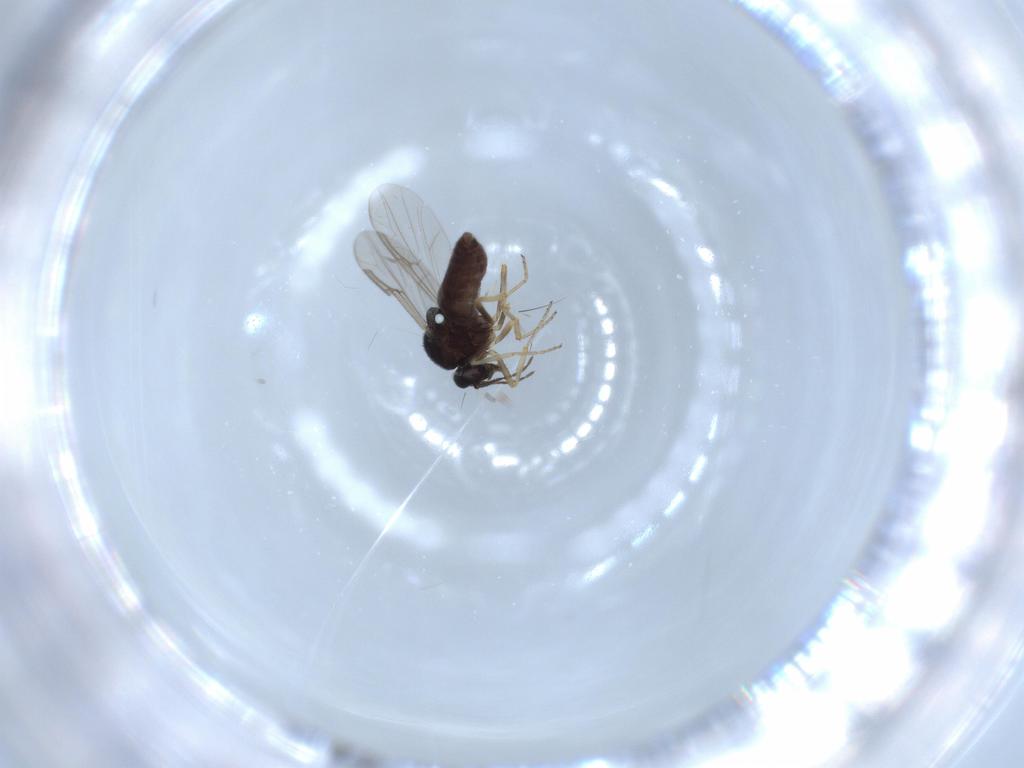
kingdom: Animalia
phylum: Arthropoda
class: Insecta
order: Diptera
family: Ceratopogonidae
